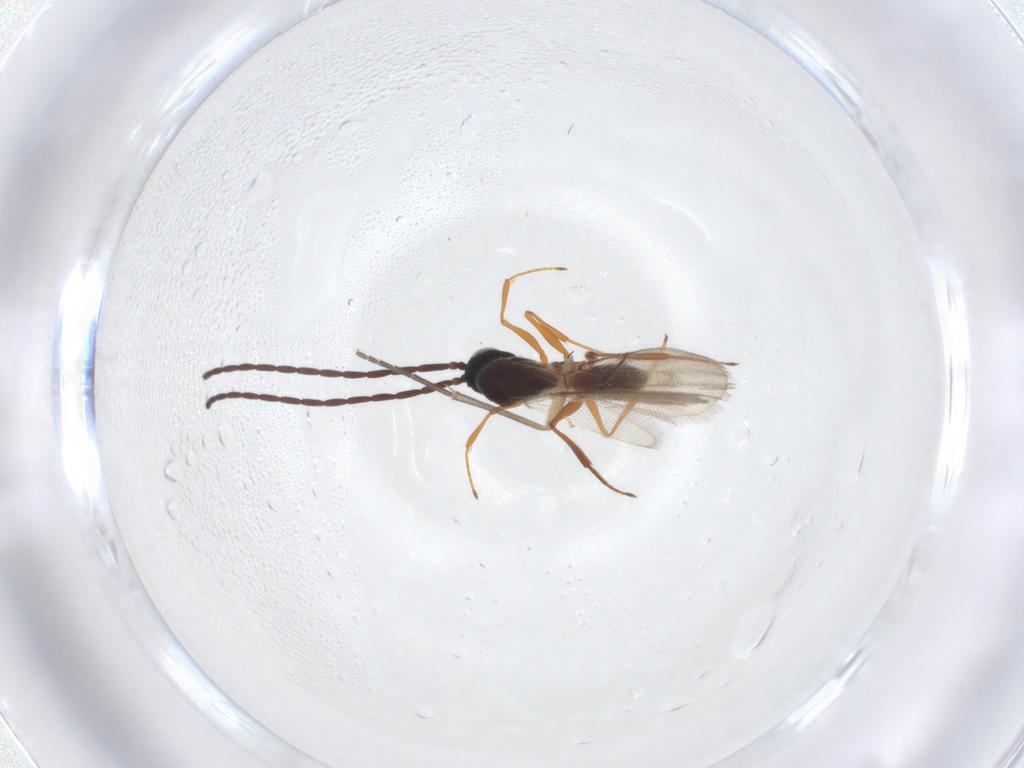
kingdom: Animalia
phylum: Arthropoda
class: Insecta
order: Hymenoptera
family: Figitidae
